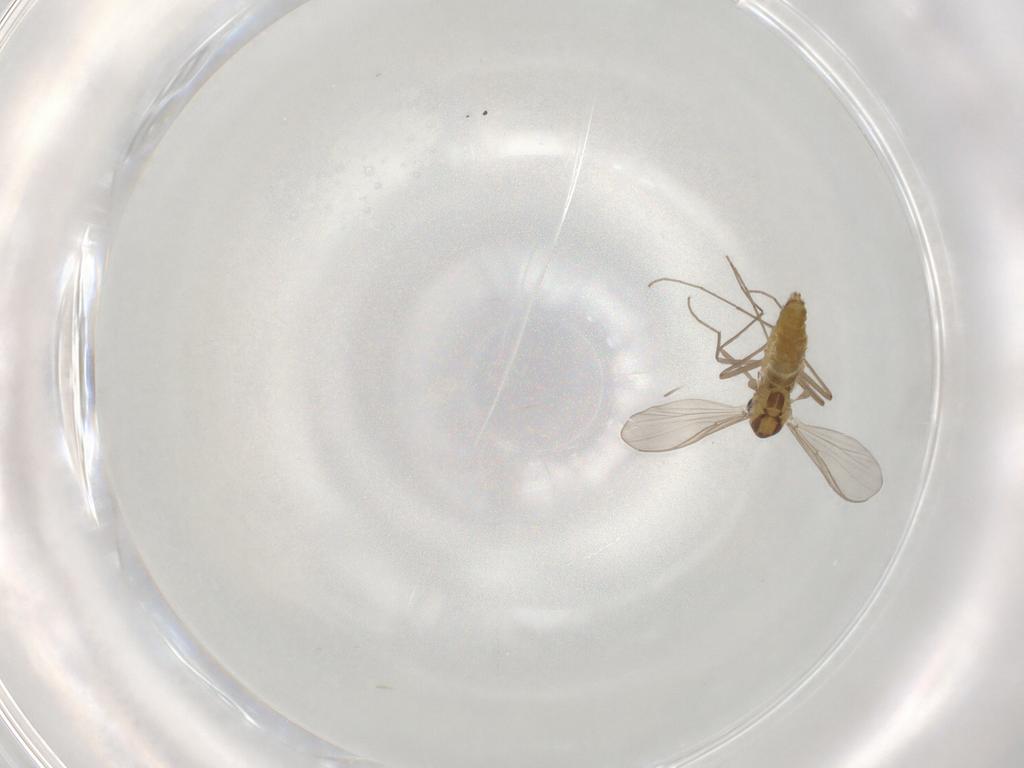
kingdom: Animalia
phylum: Arthropoda
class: Insecta
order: Diptera
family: Chironomidae
